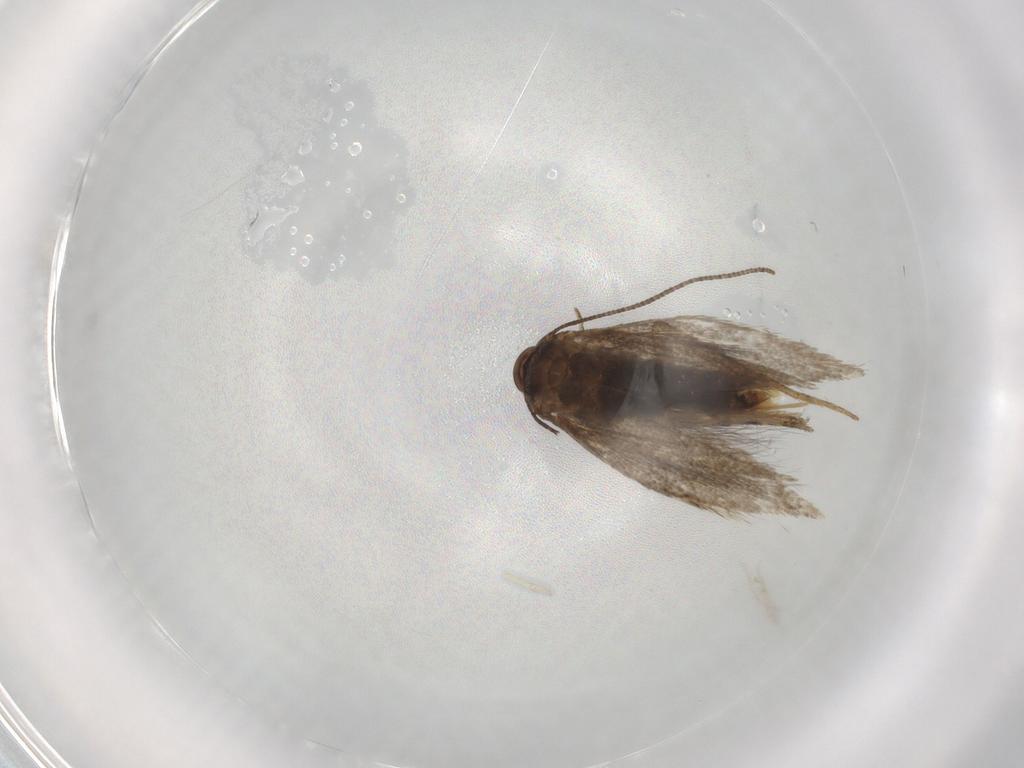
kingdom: Animalia
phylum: Arthropoda
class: Insecta
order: Lepidoptera
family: Elachistidae
